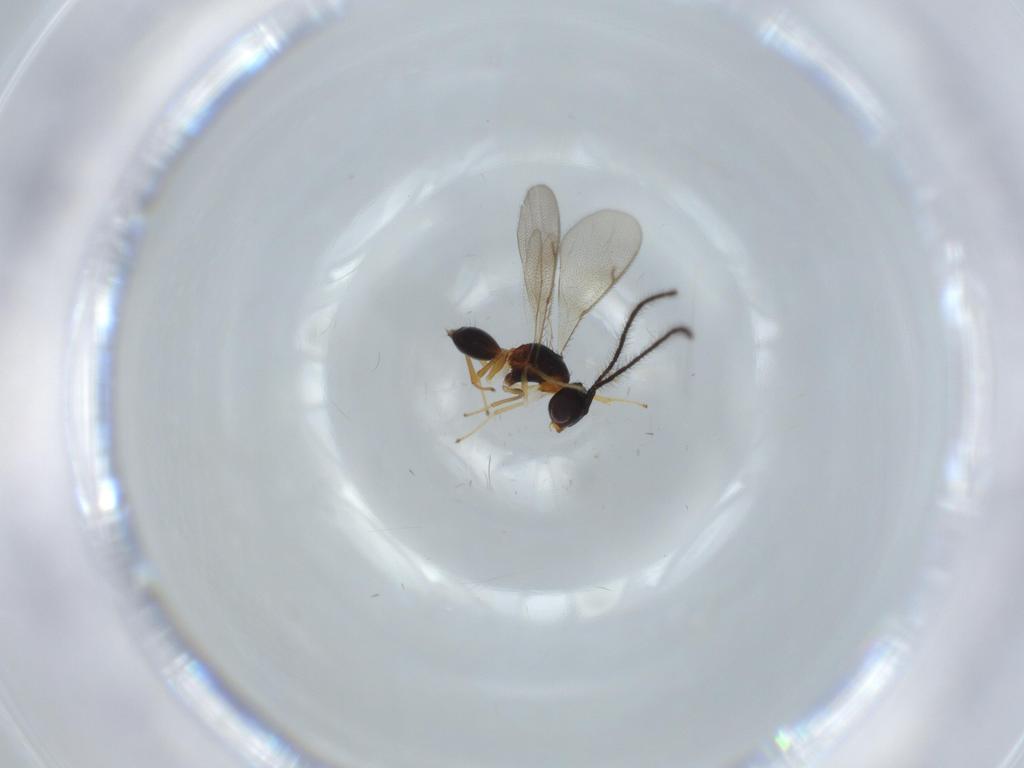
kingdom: Animalia
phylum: Arthropoda
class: Insecta
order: Hymenoptera
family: Diparidae
